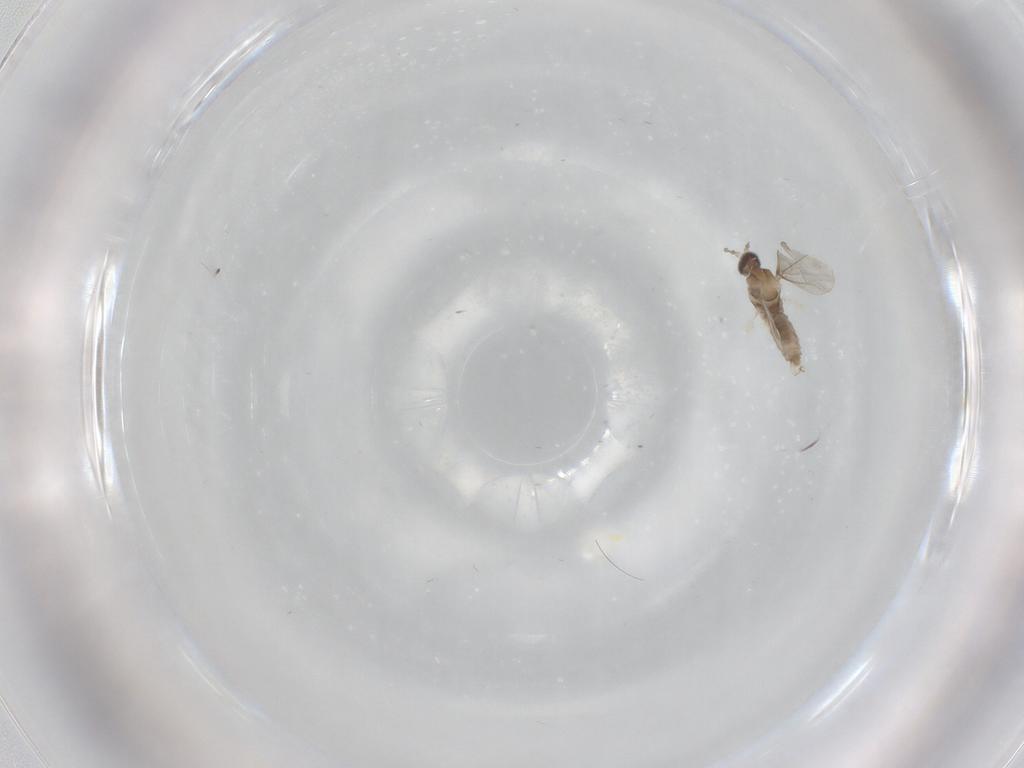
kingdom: Animalia
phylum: Arthropoda
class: Insecta
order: Diptera
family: Cecidomyiidae
